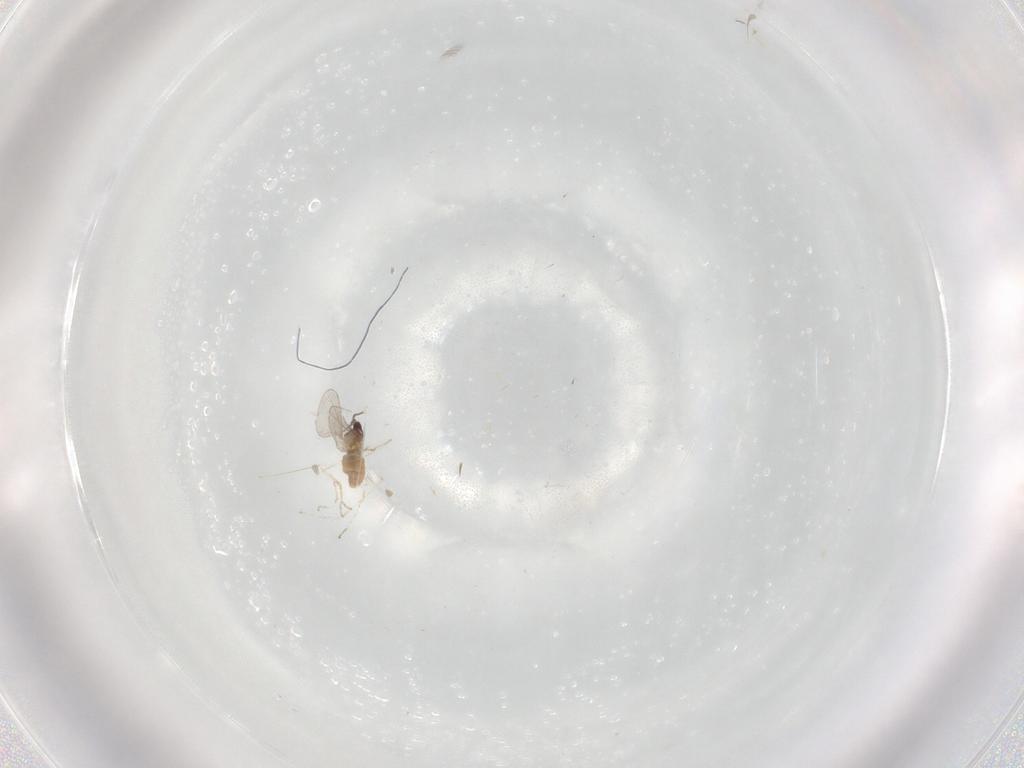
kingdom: Animalia
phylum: Arthropoda
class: Insecta
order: Diptera
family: Cecidomyiidae
